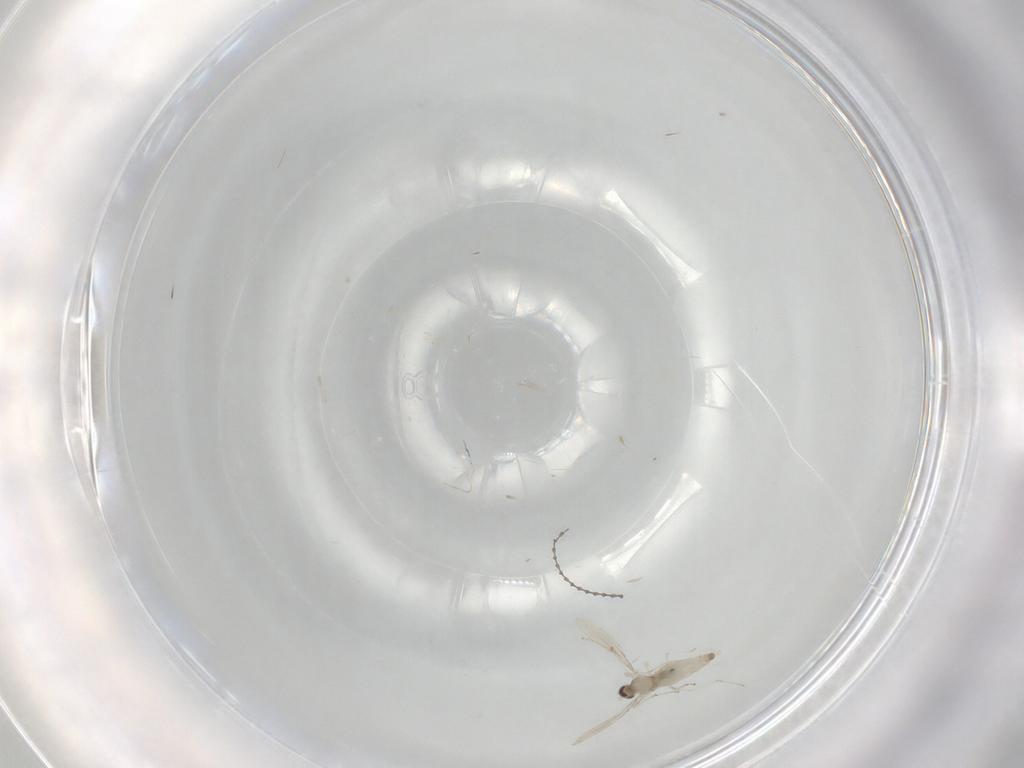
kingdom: Animalia
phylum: Arthropoda
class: Insecta
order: Diptera
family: Cecidomyiidae
